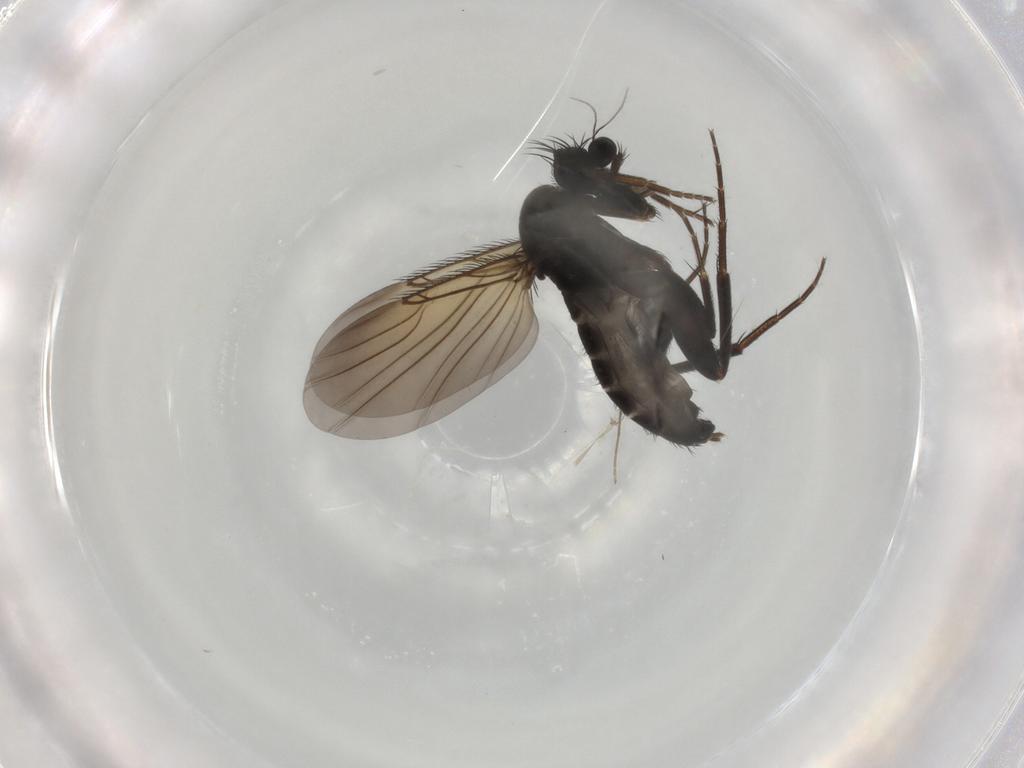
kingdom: Animalia
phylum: Arthropoda
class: Insecta
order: Diptera
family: Phoridae
